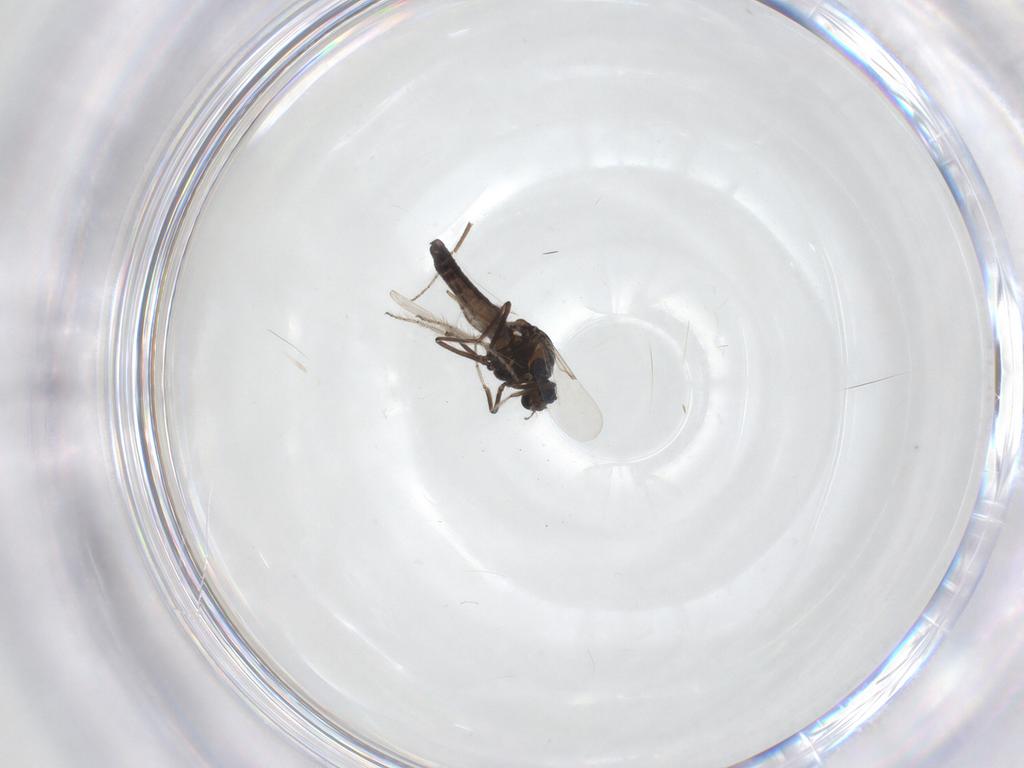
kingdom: Animalia
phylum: Arthropoda
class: Insecta
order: Diptera
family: Ceratopogonidae
